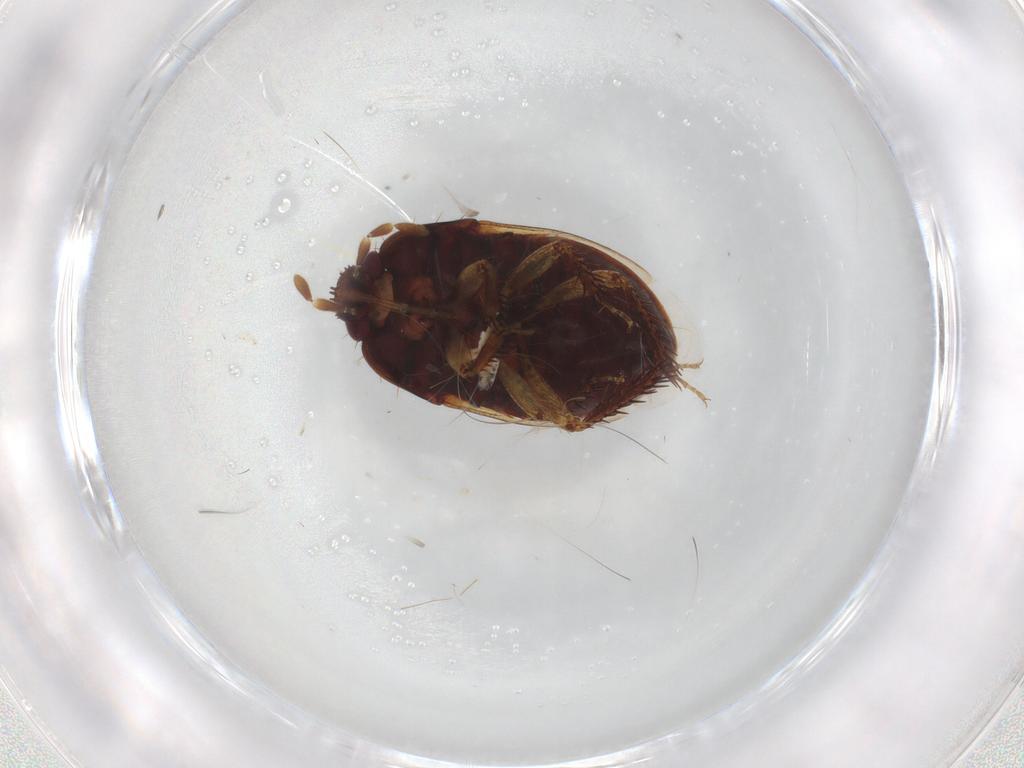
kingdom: Animalia
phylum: Arthropoda
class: Insecta
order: Hemiptera
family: Cydnidae
